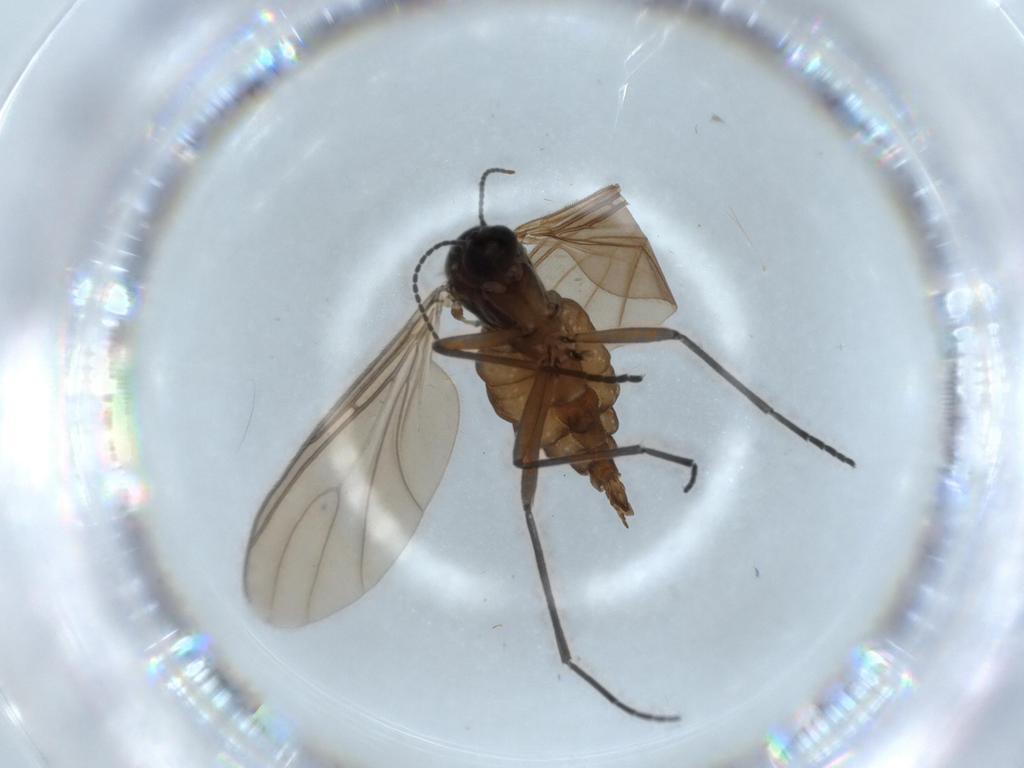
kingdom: Animalia
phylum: Arthropoda
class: Insecta
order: Diptera
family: Sciaridae
